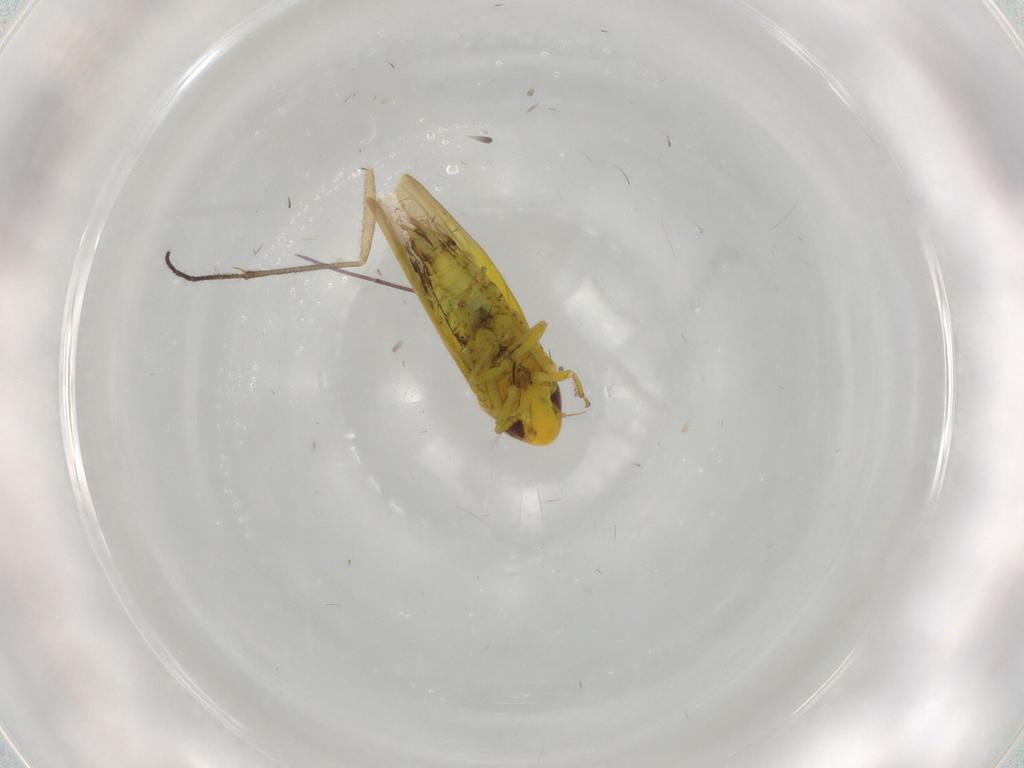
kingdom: Animalia
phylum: Arthropoda
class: Insecta
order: Hemiptera
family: Cicadellidae
